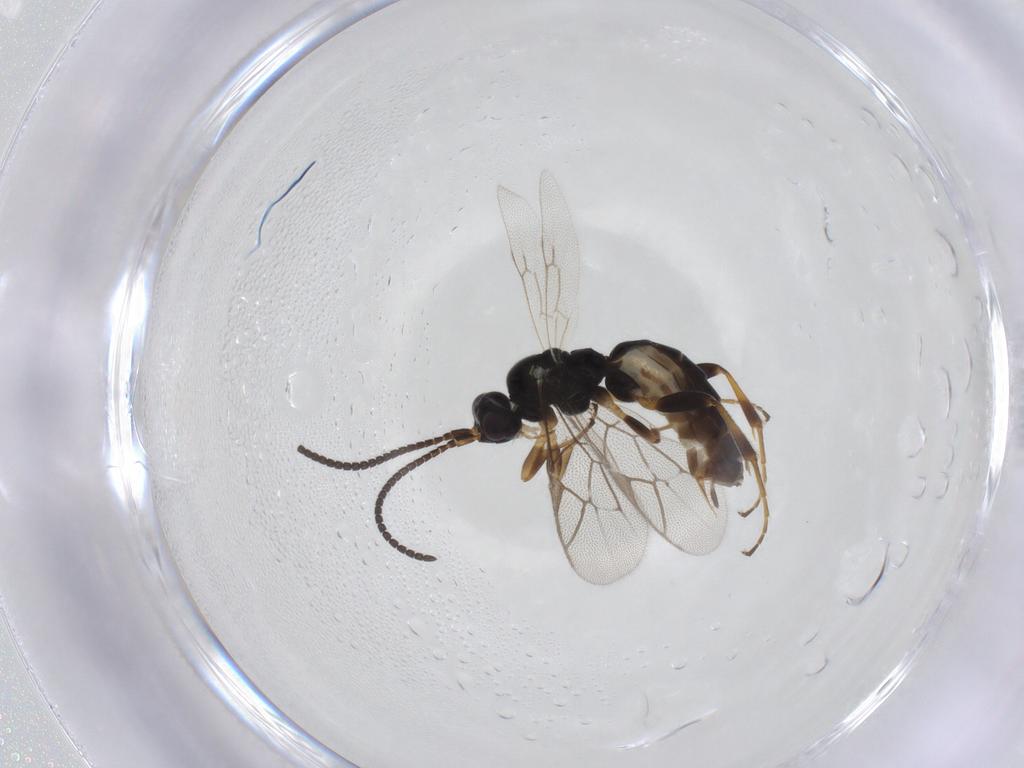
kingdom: Animalia
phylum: Arthropoda
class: Insecta
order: Hymenoptera
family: Ichneumonidae
